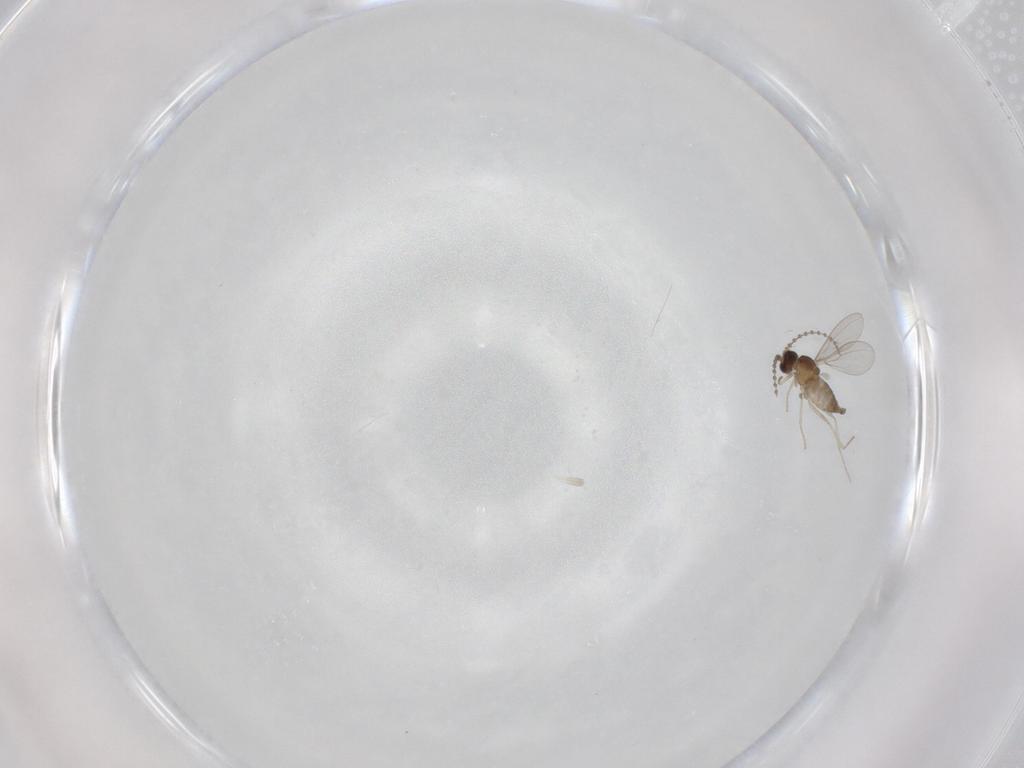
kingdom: Animalia
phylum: Arthropoda
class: Insecta
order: Diptera
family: Cecidomyiidae
